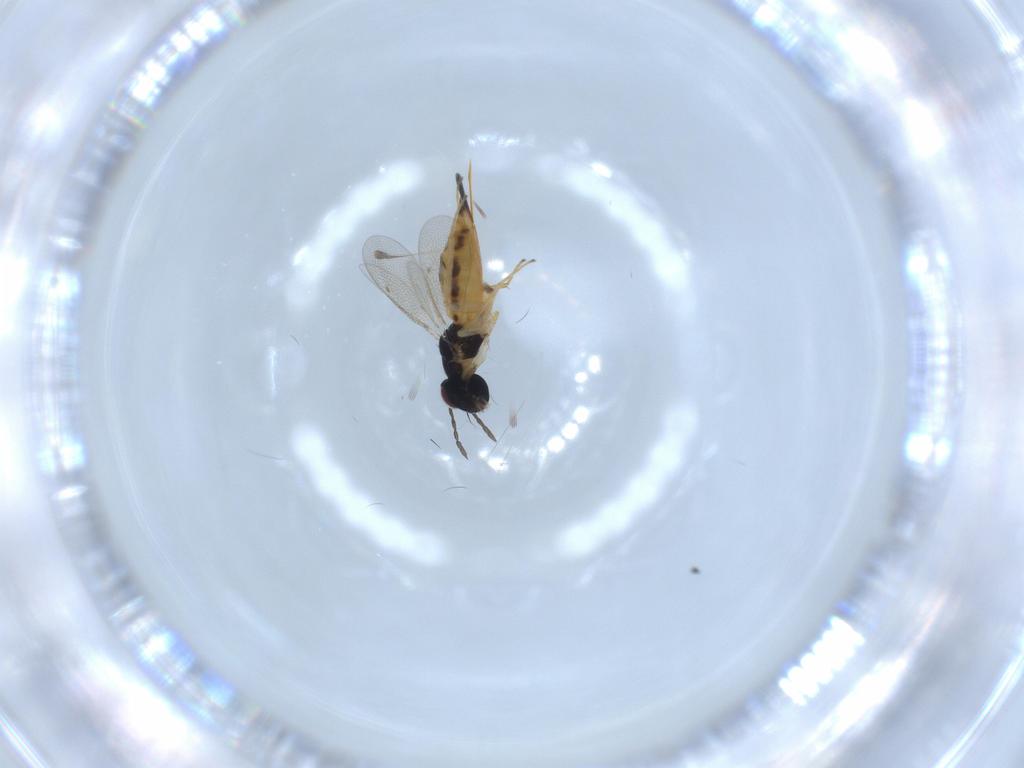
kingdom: Animalia
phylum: Arthropoda
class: Insecta
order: Hymenoptera
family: Eulophidae
